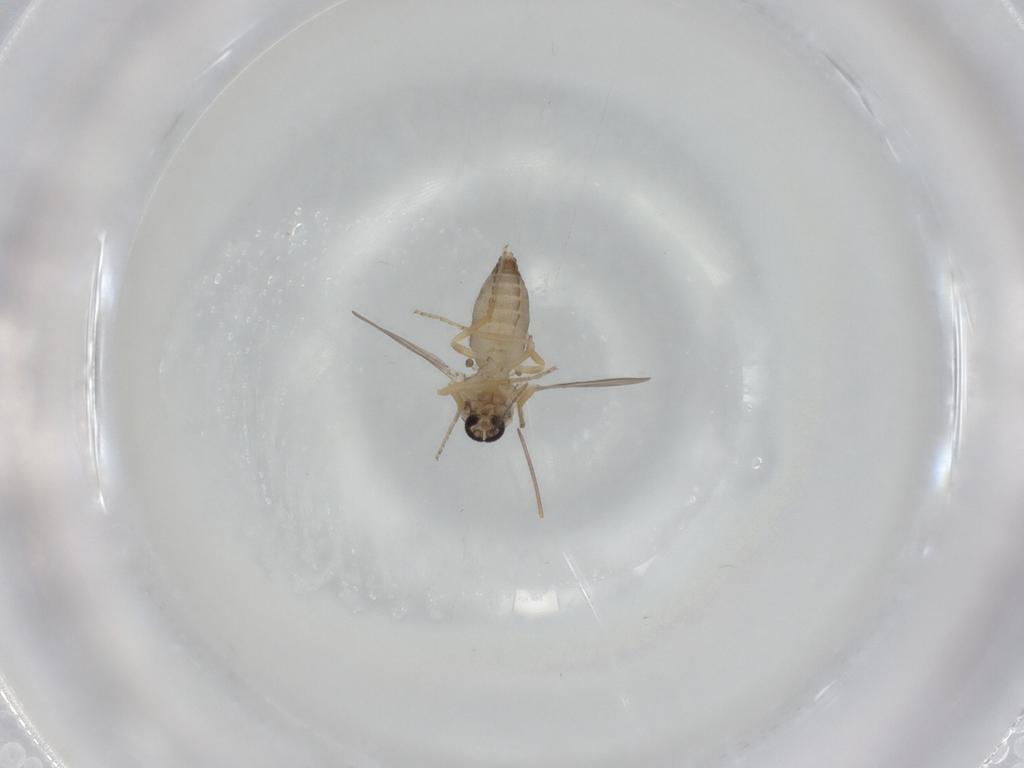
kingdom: Animalia
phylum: Arthropoda
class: Insecta
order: Diptera
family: Ceratopogonidae
